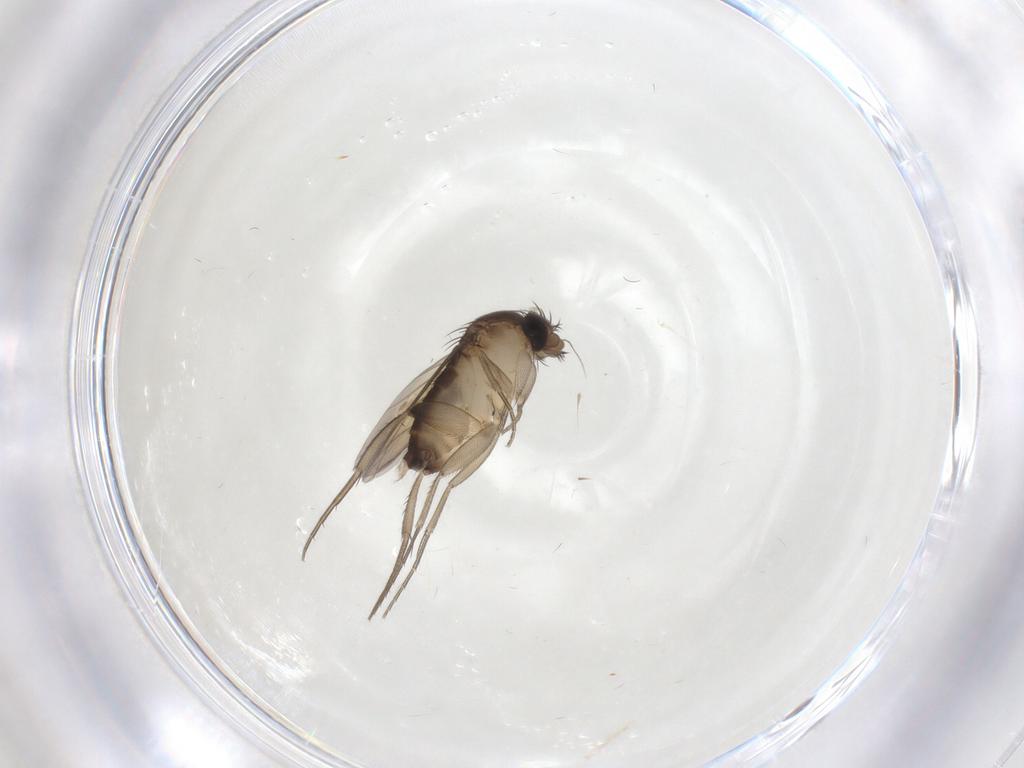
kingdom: Animalia
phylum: Arthropoda
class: Insecta
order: Diptera
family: Phoridae
